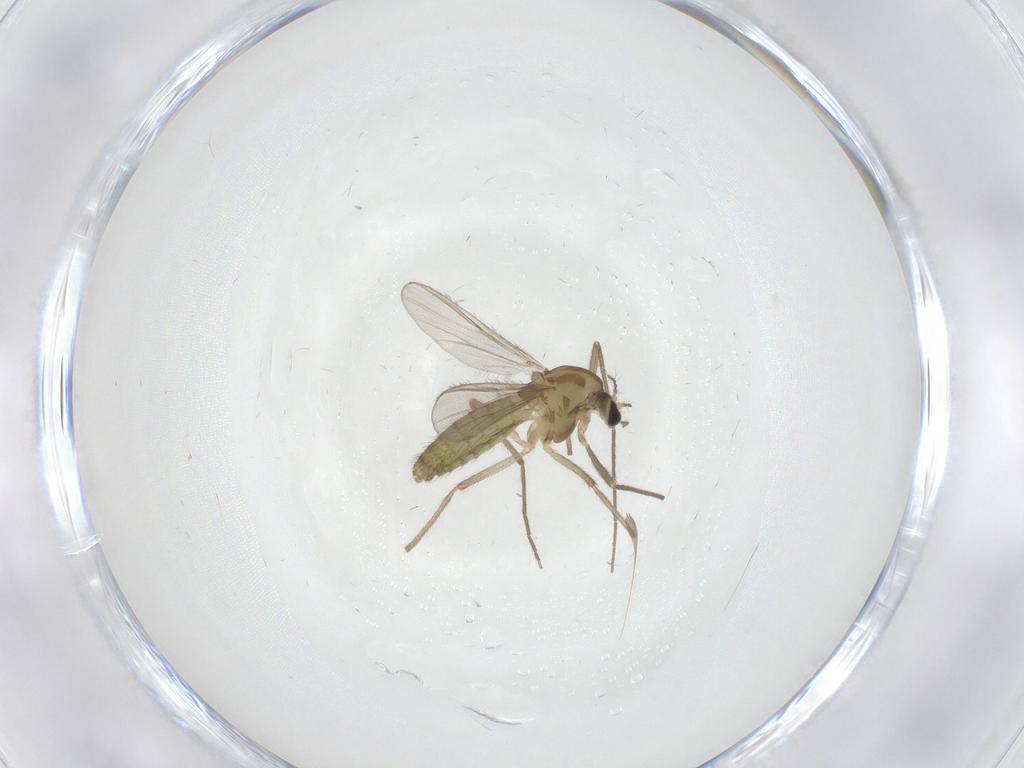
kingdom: Animalia
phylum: Arthropoda
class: Insecta
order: Diptera
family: Chironomidae
